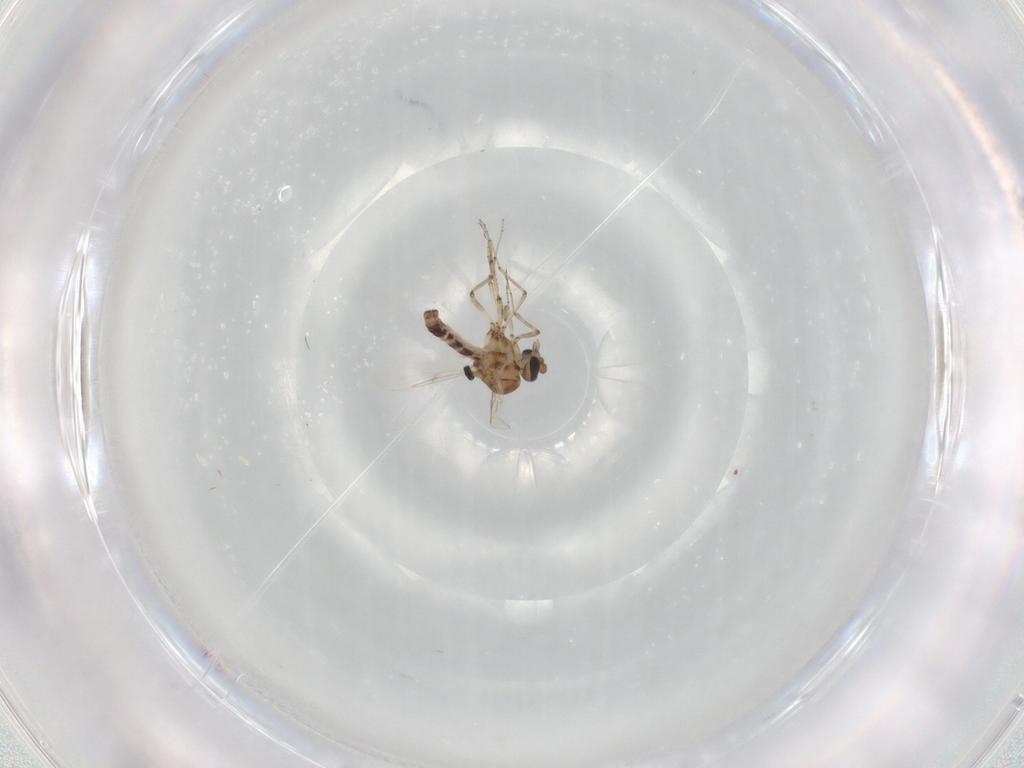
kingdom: Animalia
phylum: Arthropoda
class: Insecta
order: Diptera
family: Ceratopogonidae
